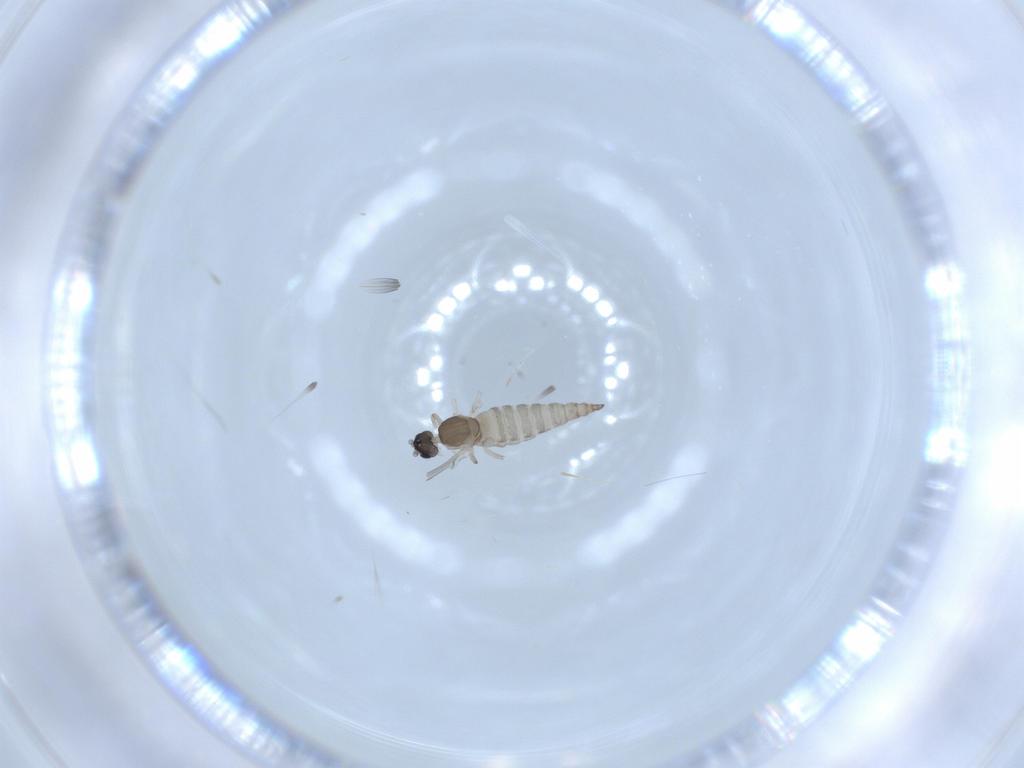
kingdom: Animalia
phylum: Arthropoda
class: Insecta
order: Diptera
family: Cecidomyiidae
